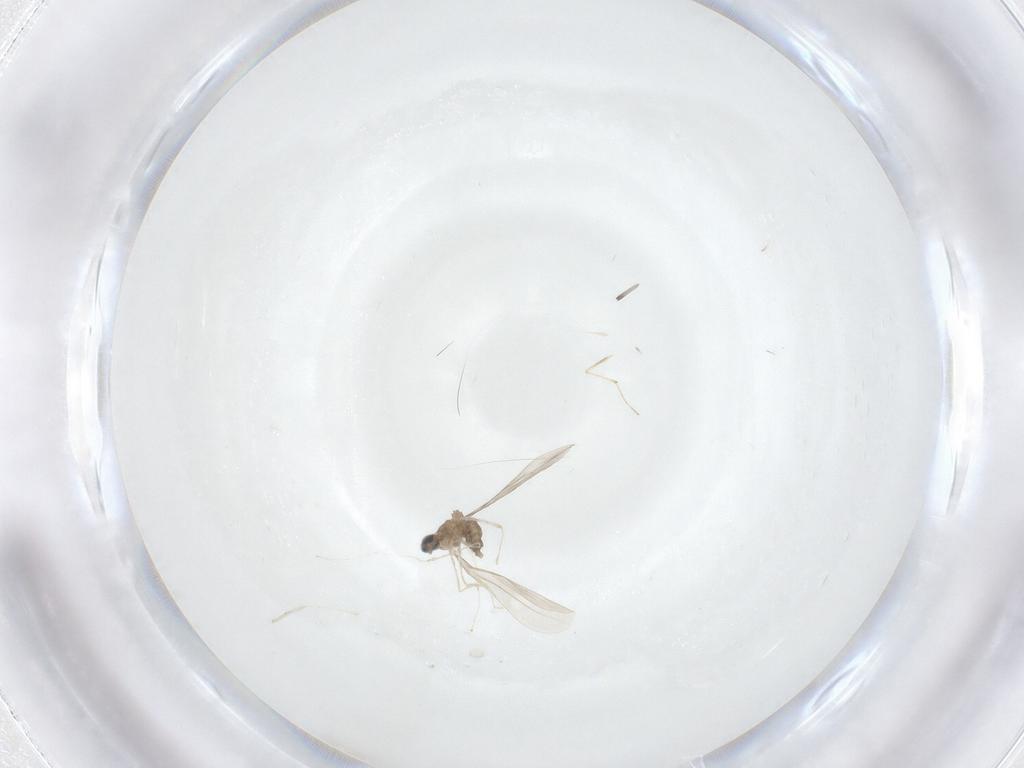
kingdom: Animalia
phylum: Arthropoda
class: Insecta
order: Diptera
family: Cecidomyiidae
